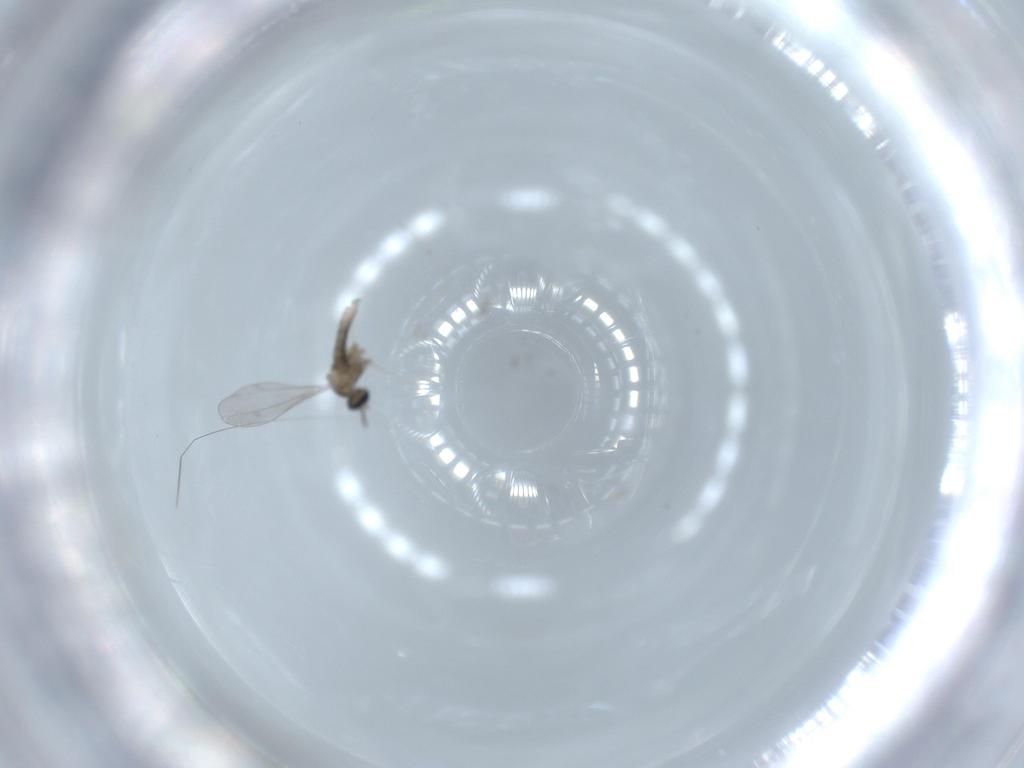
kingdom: Animalia
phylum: Arthropoda
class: Insecta
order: Diptera
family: Cecidomyiidae
